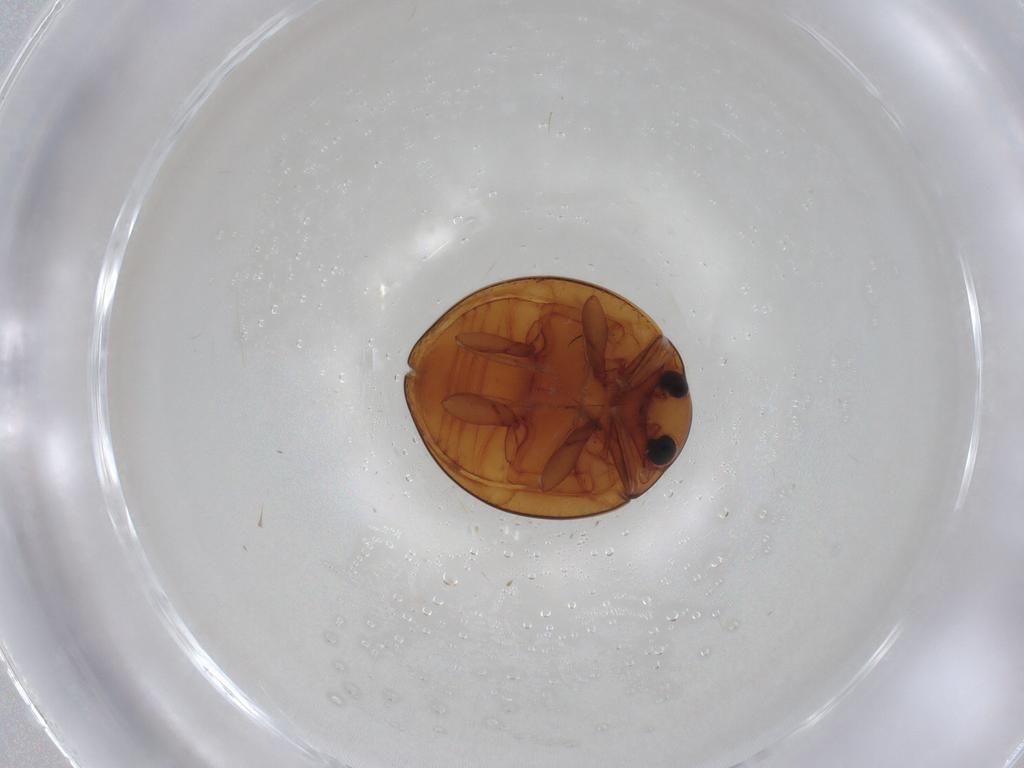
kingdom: Animalia
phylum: Arthropoda
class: Insecta
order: Coleoptera
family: Coccinellidae
